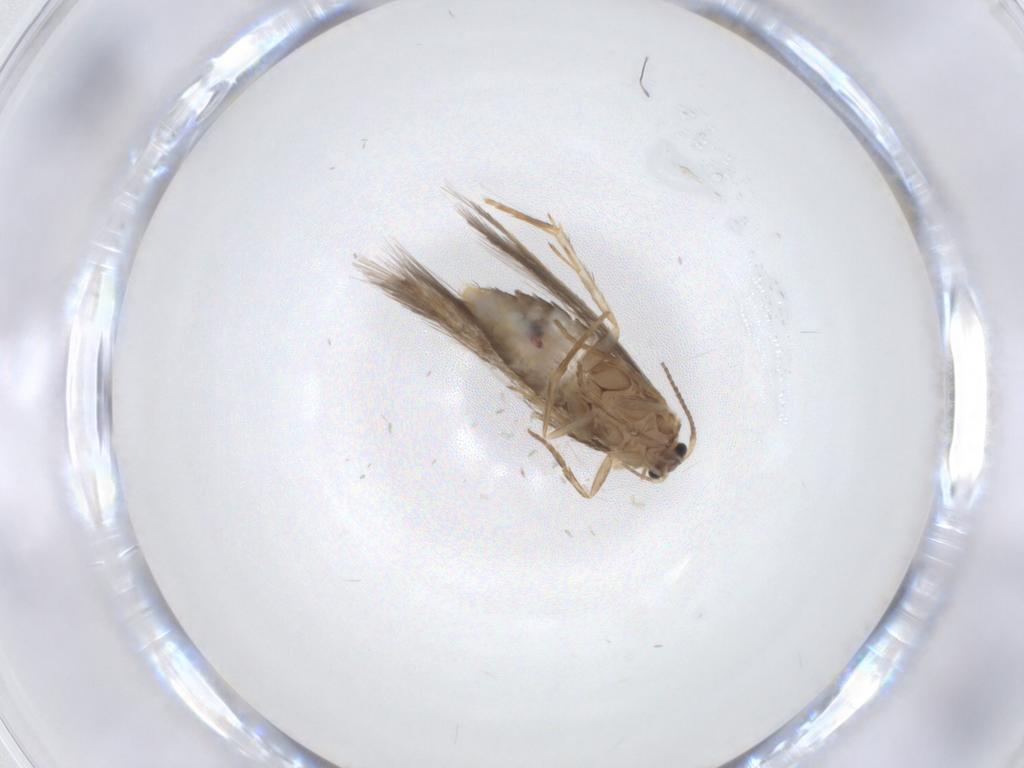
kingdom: Animalia
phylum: Arthropoda
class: Insecta
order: Lepidoptera
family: Nepticulidae
